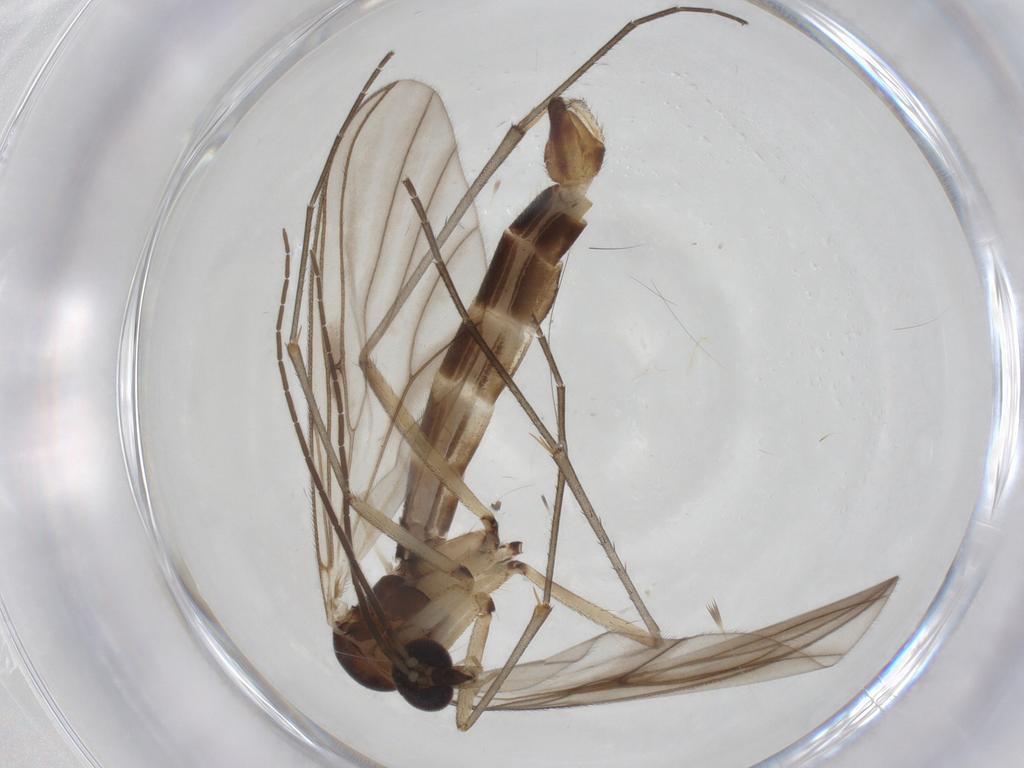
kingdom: Animalia
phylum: Arthropoda
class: Insecta
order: Diptera
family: Mycetophilidae
